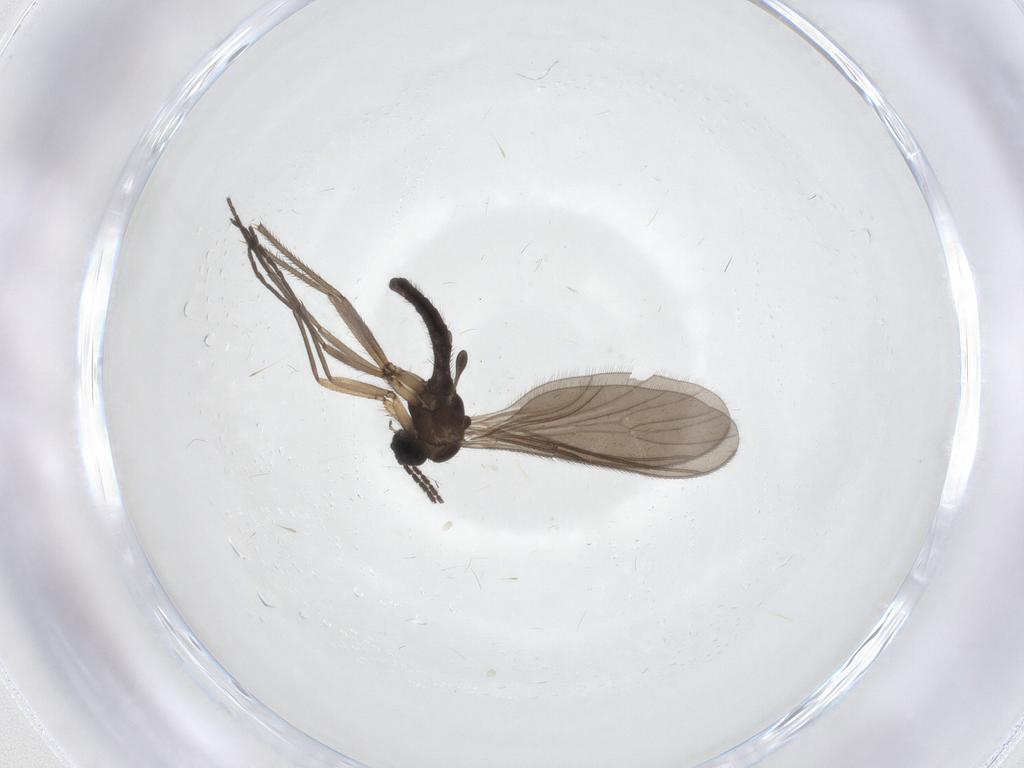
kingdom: Animalia
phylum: Arthropoda
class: Insecta
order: Diptera
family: Sciaridae
